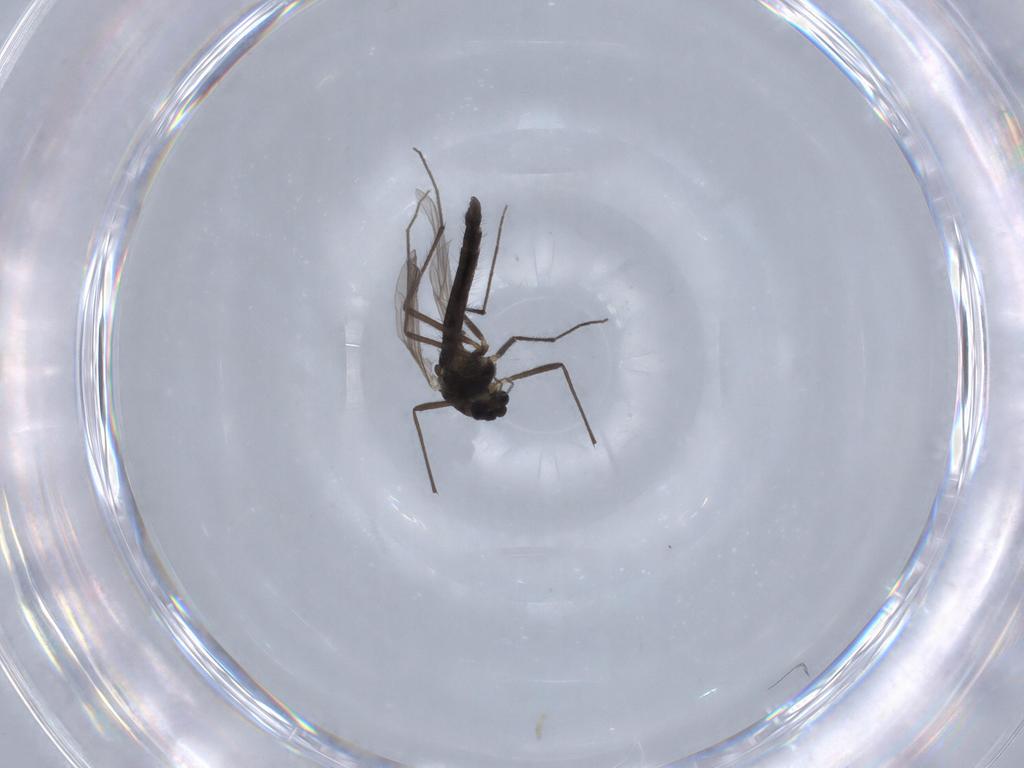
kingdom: Animalia
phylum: Arthropoda
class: Insecta
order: Diptera
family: Chironomidae
